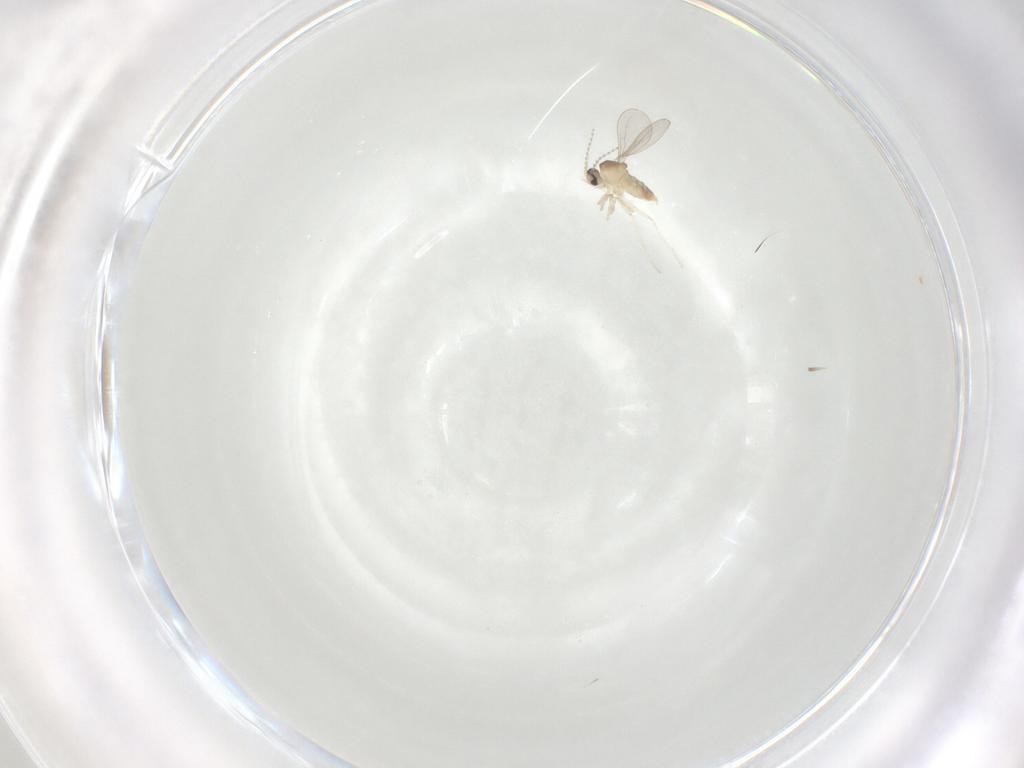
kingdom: Animalia
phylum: Arthropoda
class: Insecta
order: Diptera
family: Cecidomyiidae
